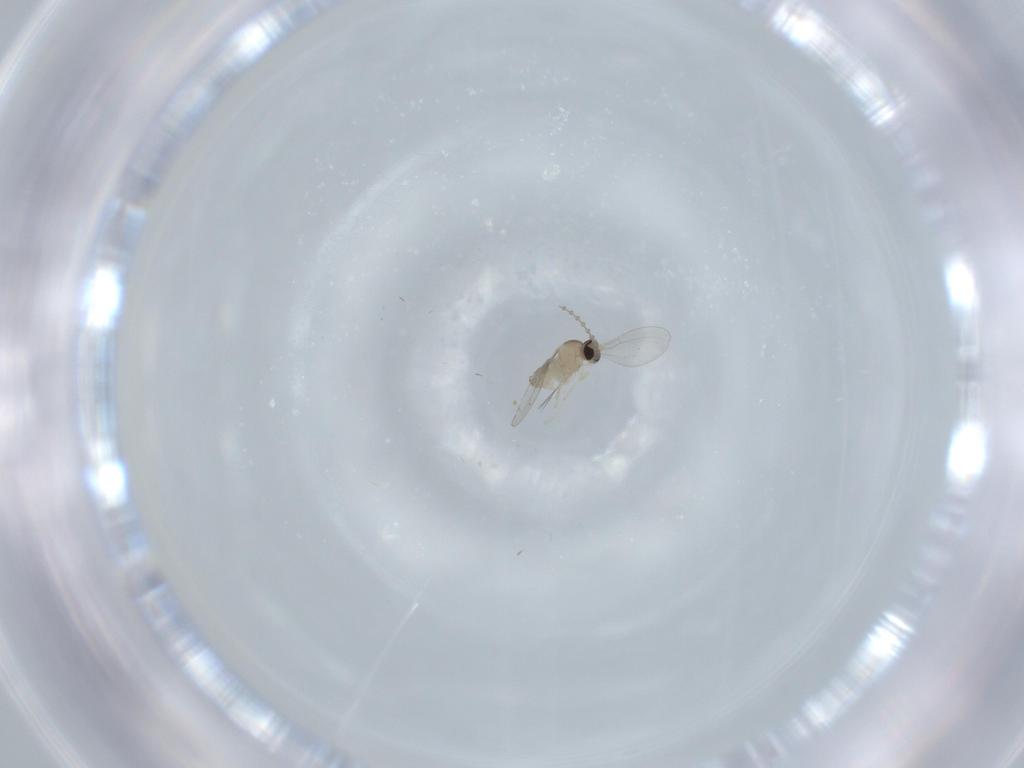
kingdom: Animalia
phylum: Arthropoda
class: Insecta
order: Diptera
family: Cecidomyiidae
